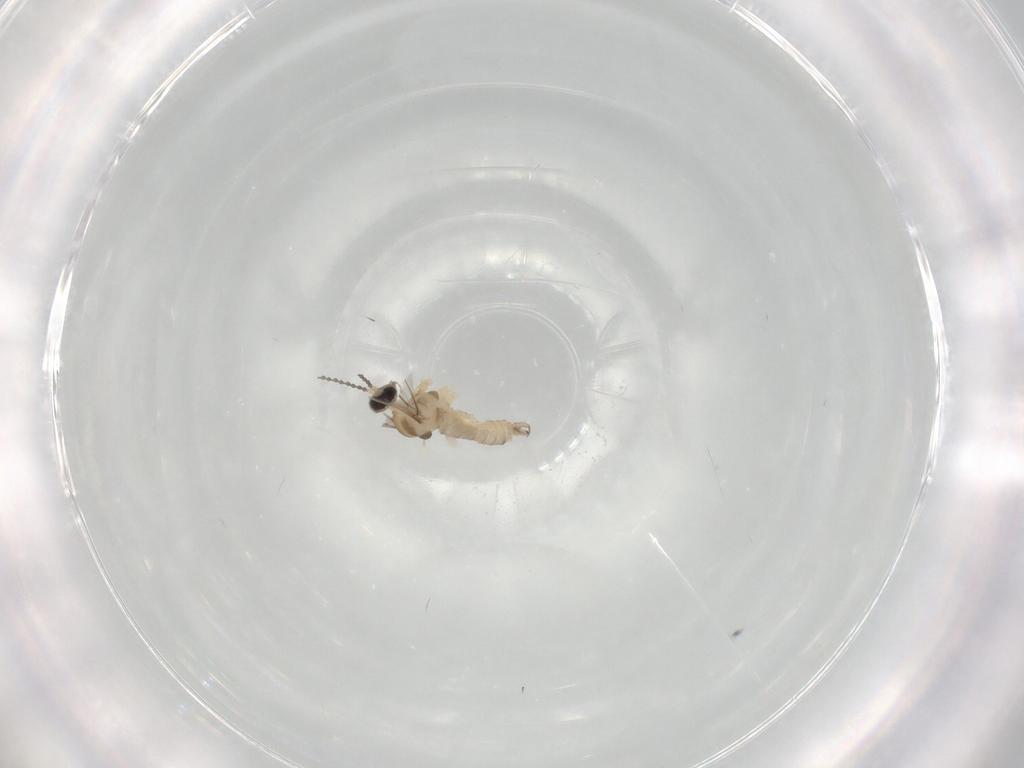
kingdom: Animalia
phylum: Arthropoda
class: Insecta
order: Diptera
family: Cecidomyiidae
